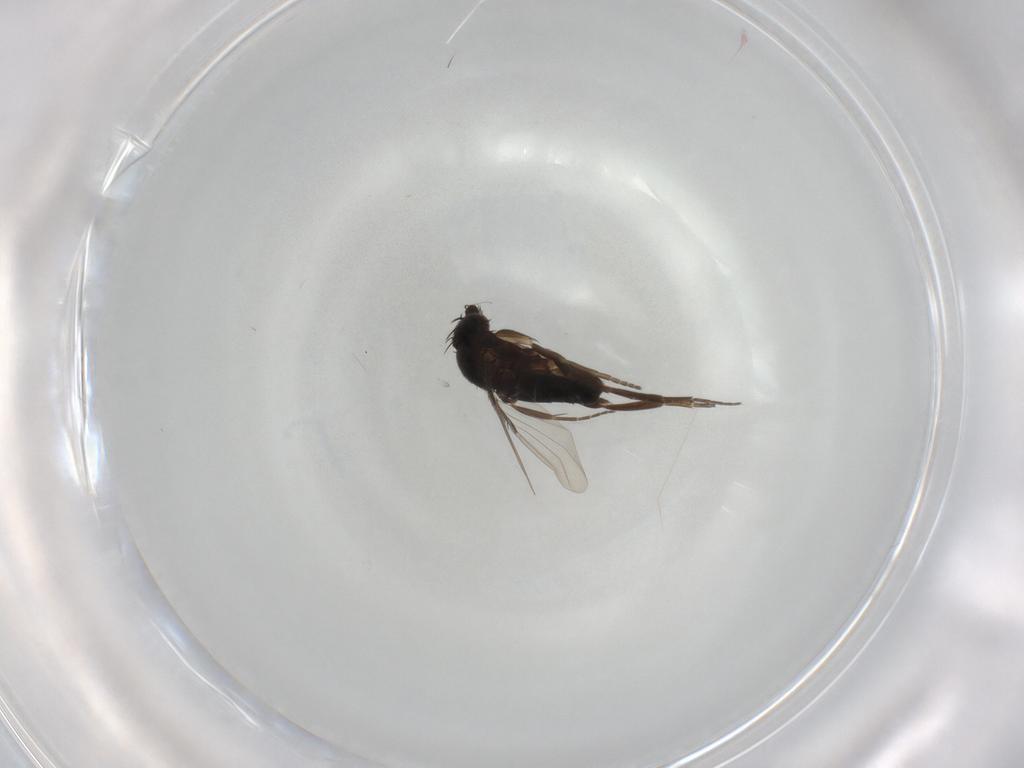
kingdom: Animalia
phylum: Arthropoda
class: Insecta
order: Diptera
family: Phoridae
